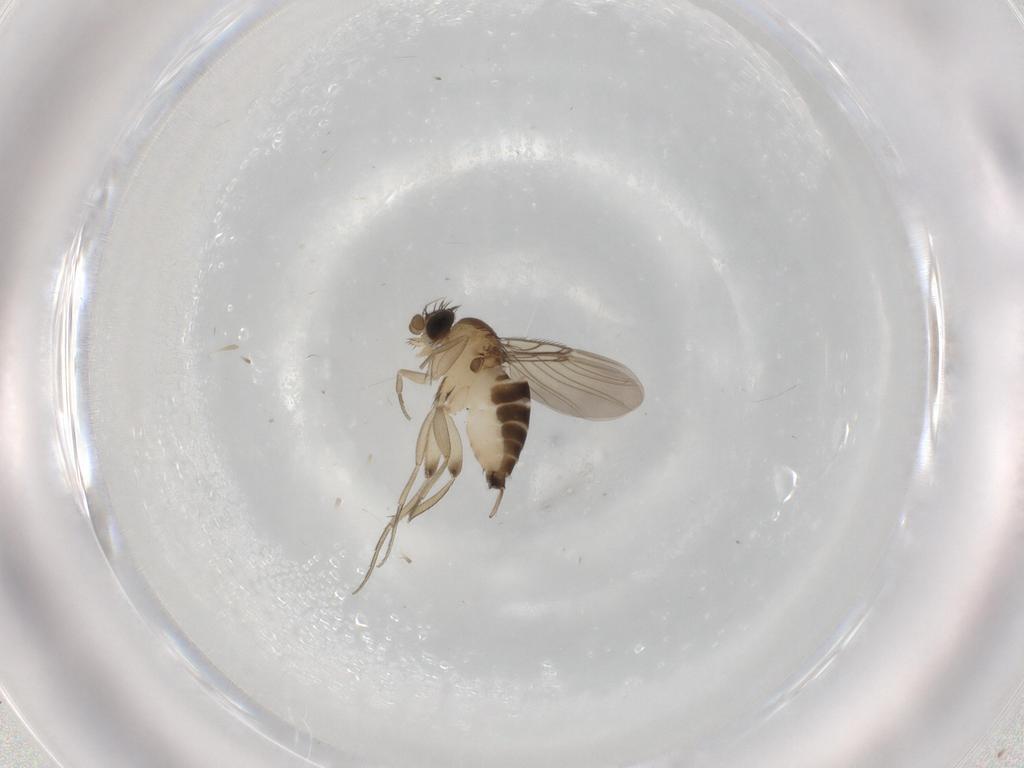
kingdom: Animalia
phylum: Arthropoda
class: Insecta
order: Diptera
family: Phoridae
